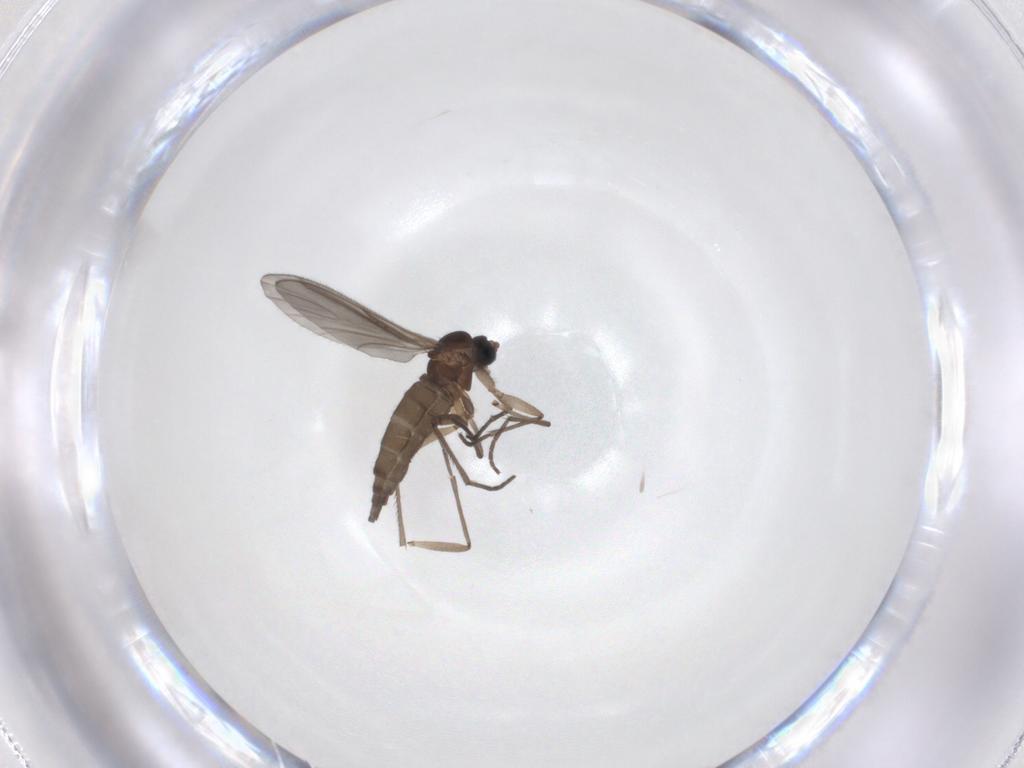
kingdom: Animalia
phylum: Arthropoda
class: Insecta
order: Diptera
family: Sciaridae
